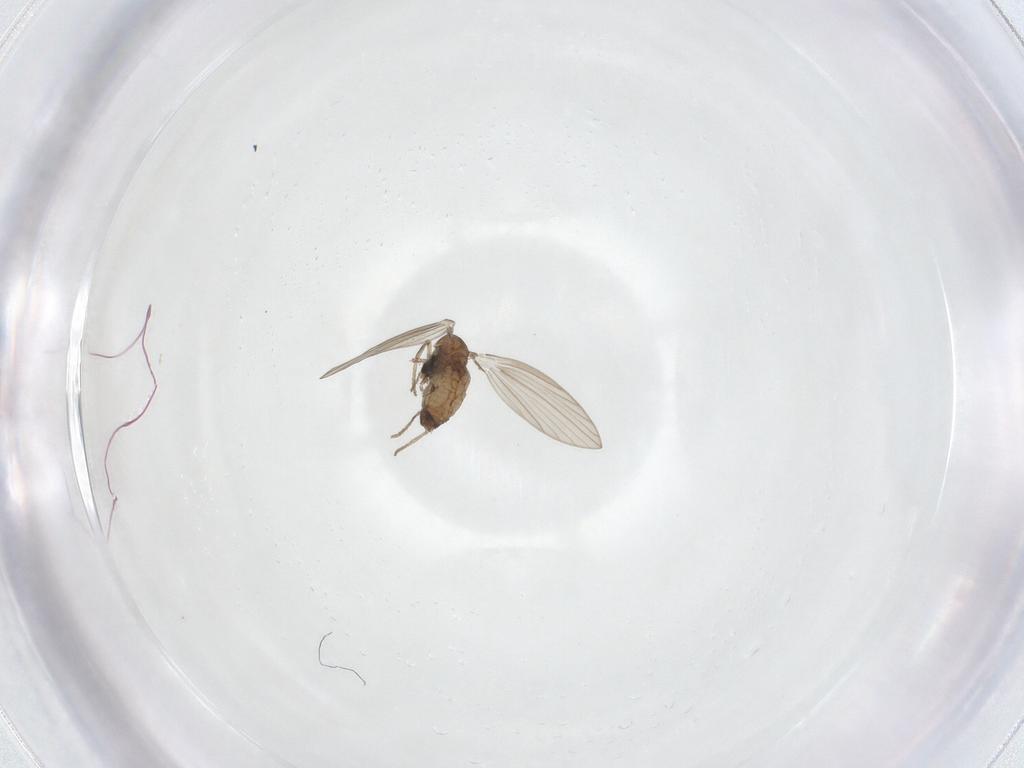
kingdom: Animalia
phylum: Arthropoda
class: Insecta
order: Diptera
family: Psychodidae
